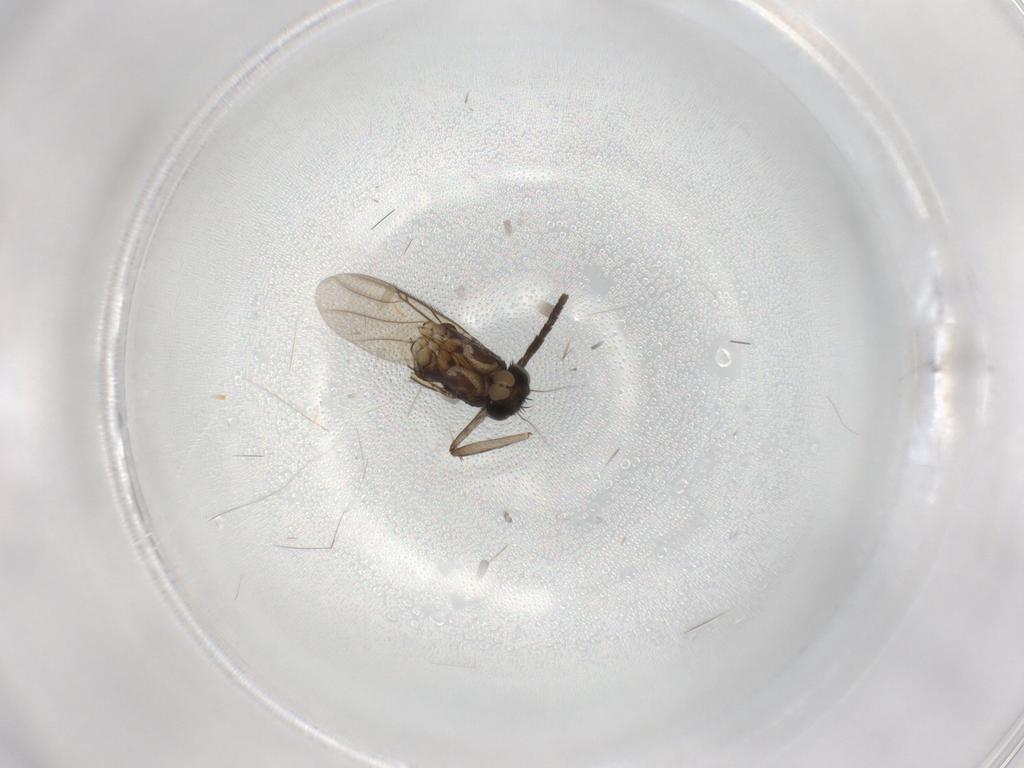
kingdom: Animalia
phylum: Arthropoda
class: Insecta
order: Diptera
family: Phoridae
